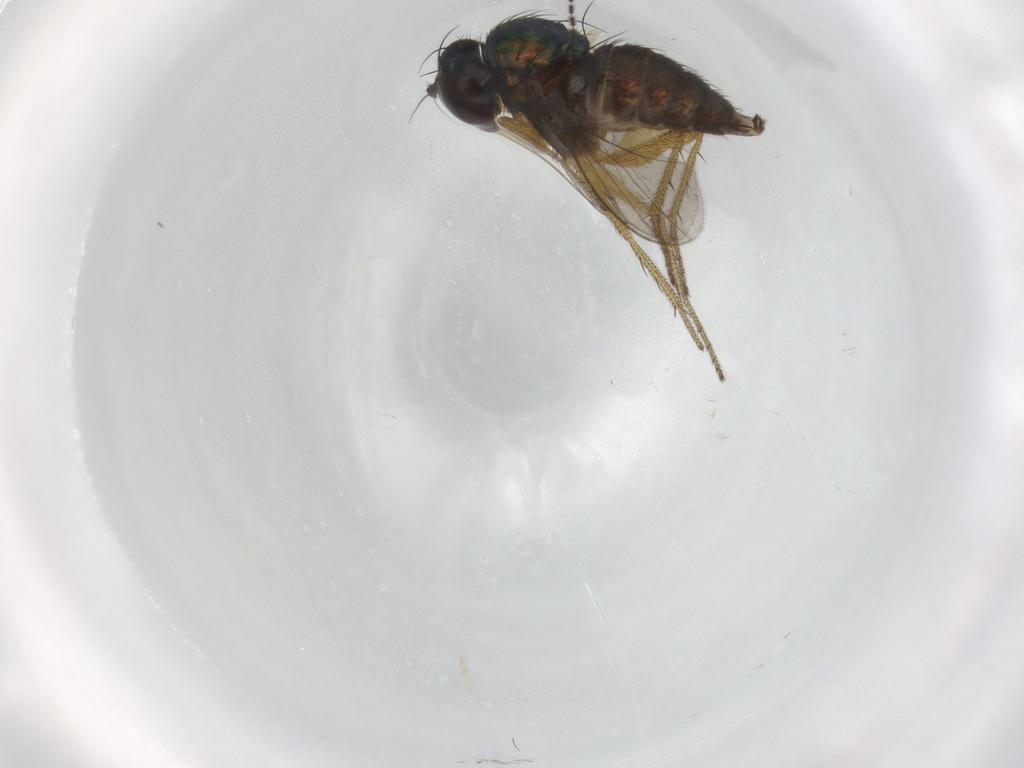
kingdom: Animalia
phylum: Arthropoda
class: Insecta
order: Diptera
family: Dolichopodidae
